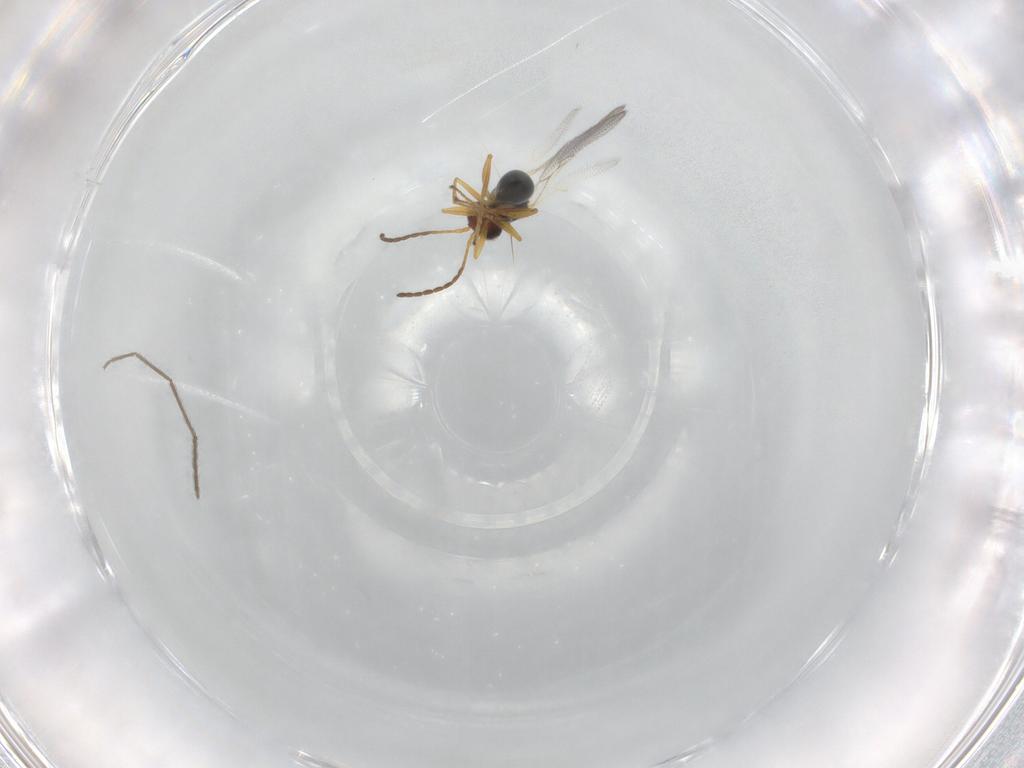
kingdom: Animalia
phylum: Arthropoda
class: Insecta
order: Hymenoptera
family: Figitidae
